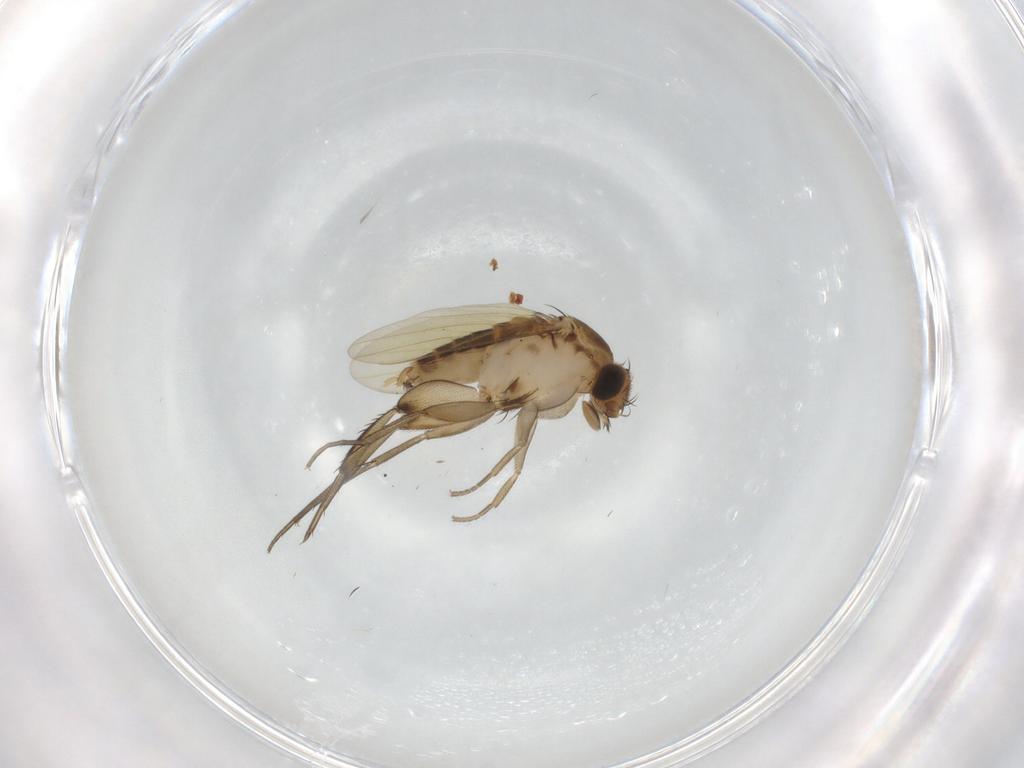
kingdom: Animalia
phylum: Arthropoda
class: Insecta
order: Diptera
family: Phoridae
